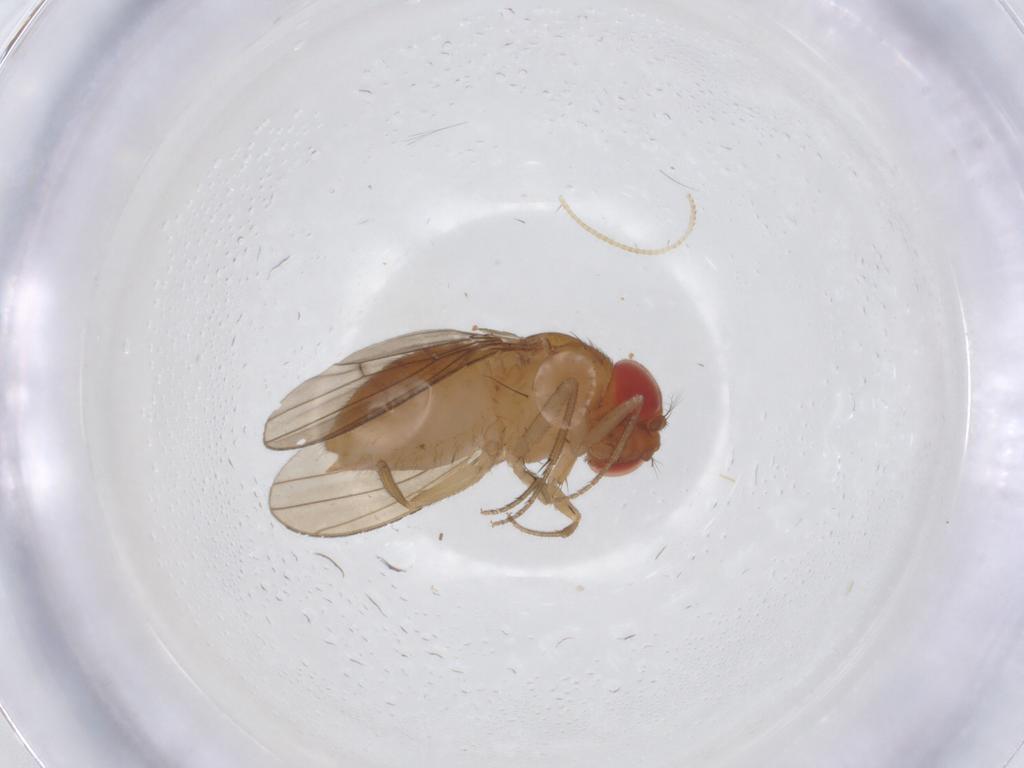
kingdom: Animalia
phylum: Arthropoda
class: Insecta
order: Diptera
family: Drosophilidae
